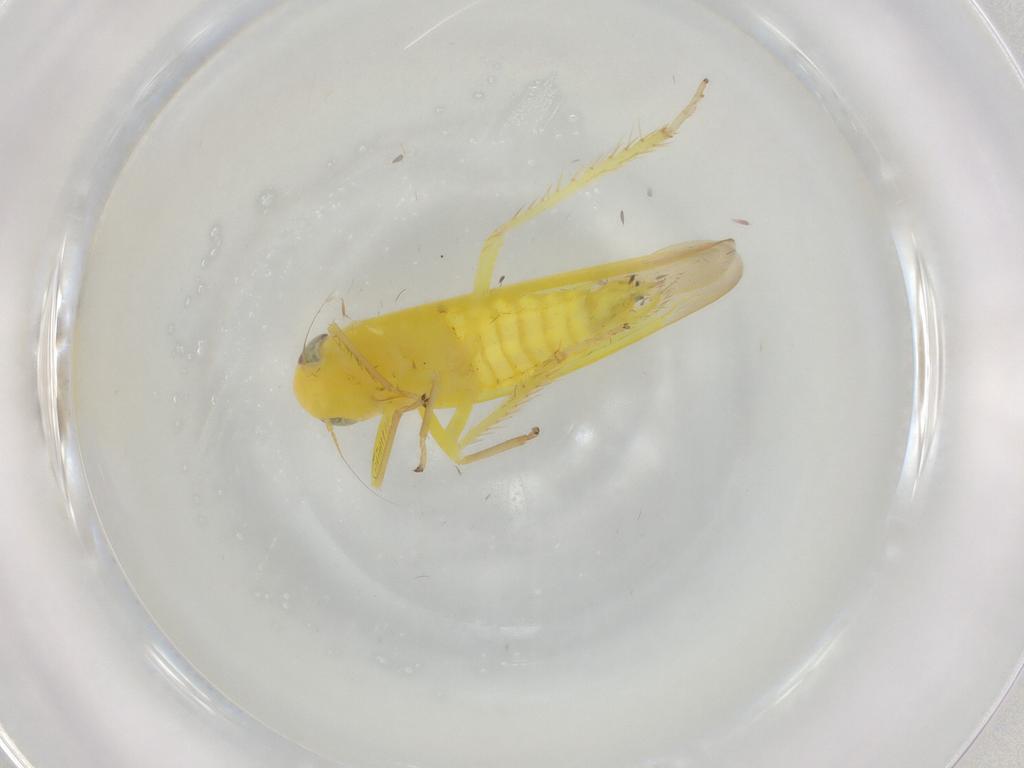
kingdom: Animalia
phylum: Arthropoda
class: Insecta
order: Hemiptera
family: Cicadellidae
